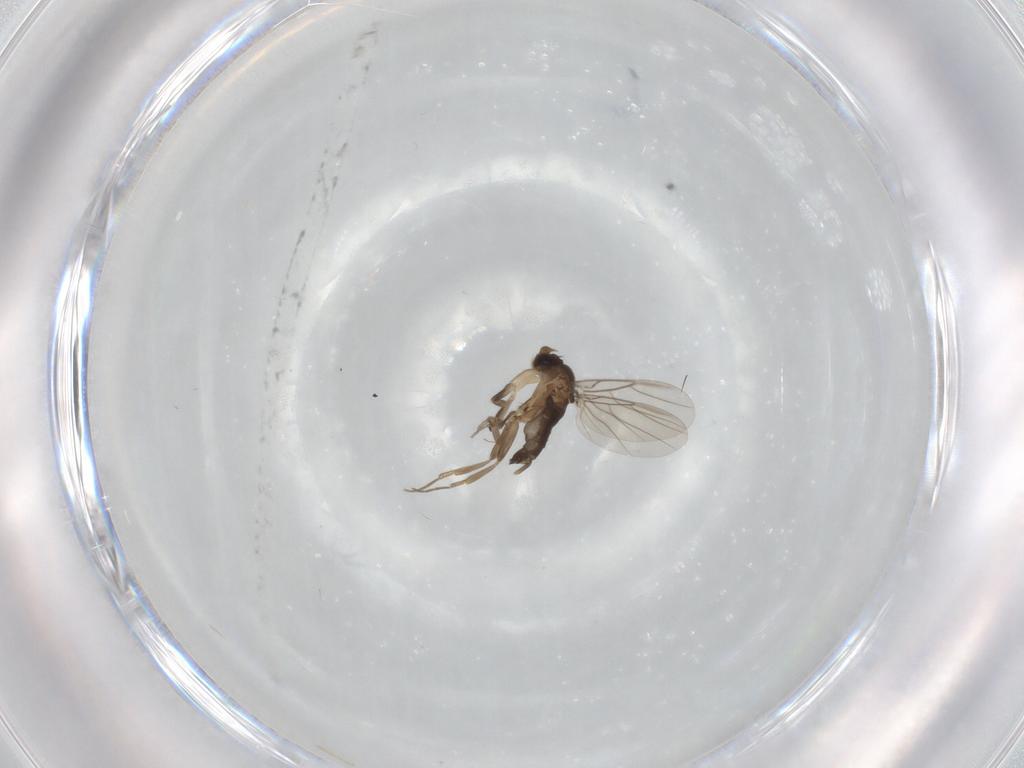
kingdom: Animalia
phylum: Arthropoda
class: Insecta
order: Diptera
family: Phoridae
